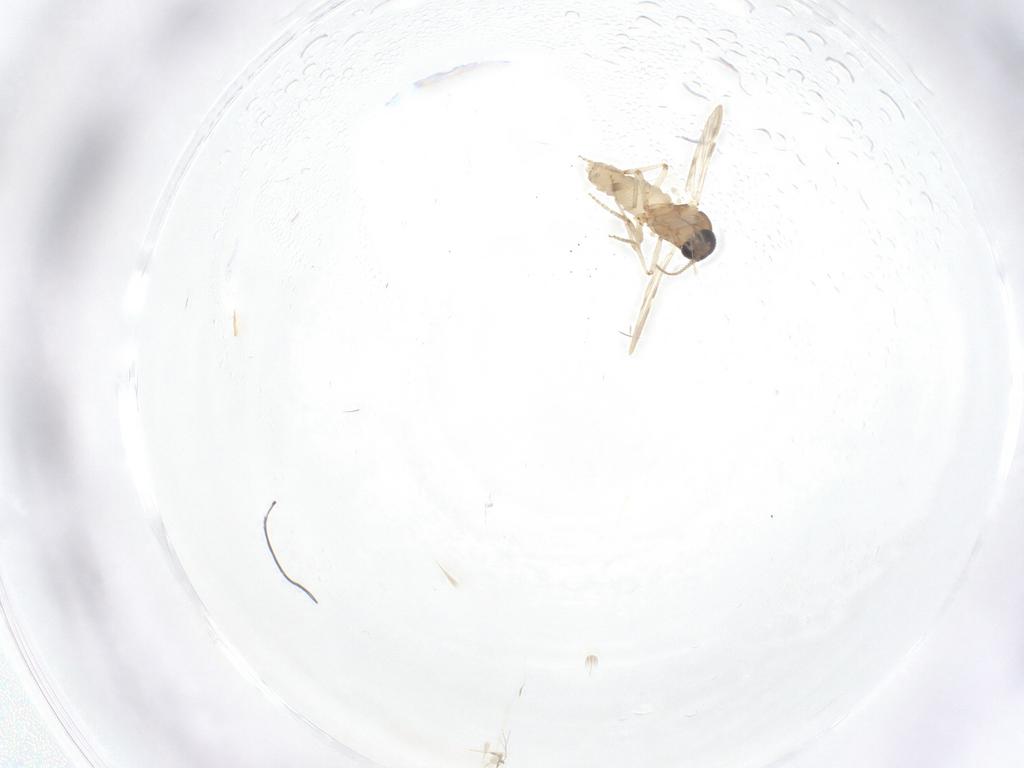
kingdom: Animalia
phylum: Arthropoda
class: Insecta
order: Diptera
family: Ceratopogonidae
